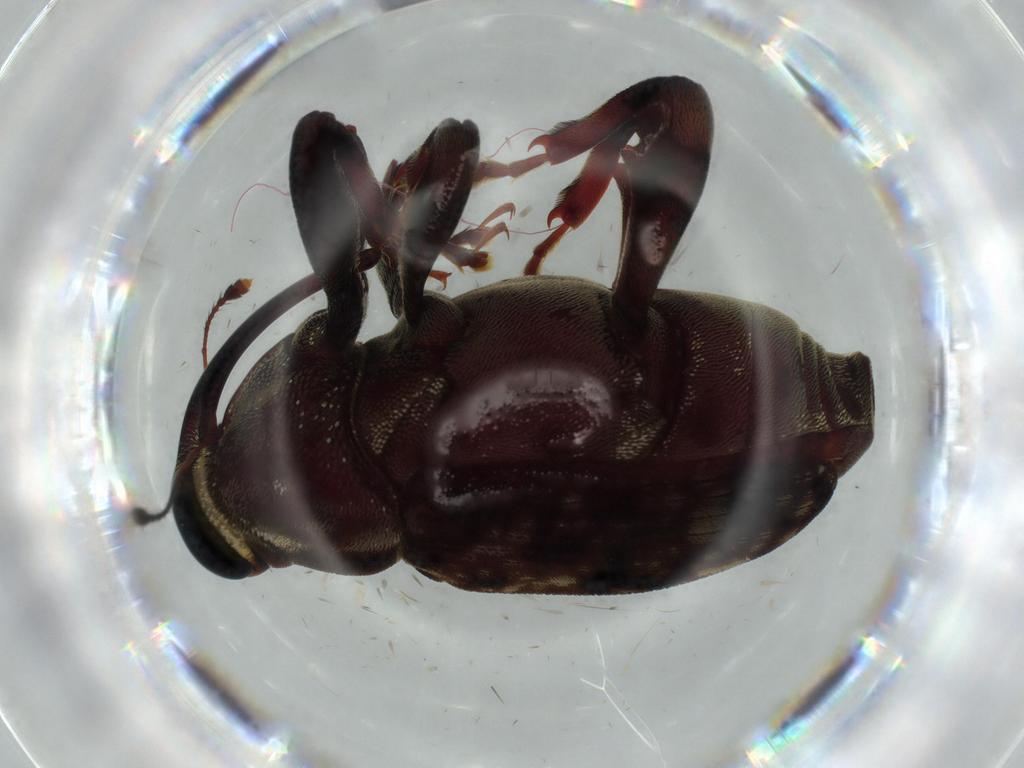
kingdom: Animalia
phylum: Arthropoda
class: Insecta
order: Coleoptera
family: Curculionidae
